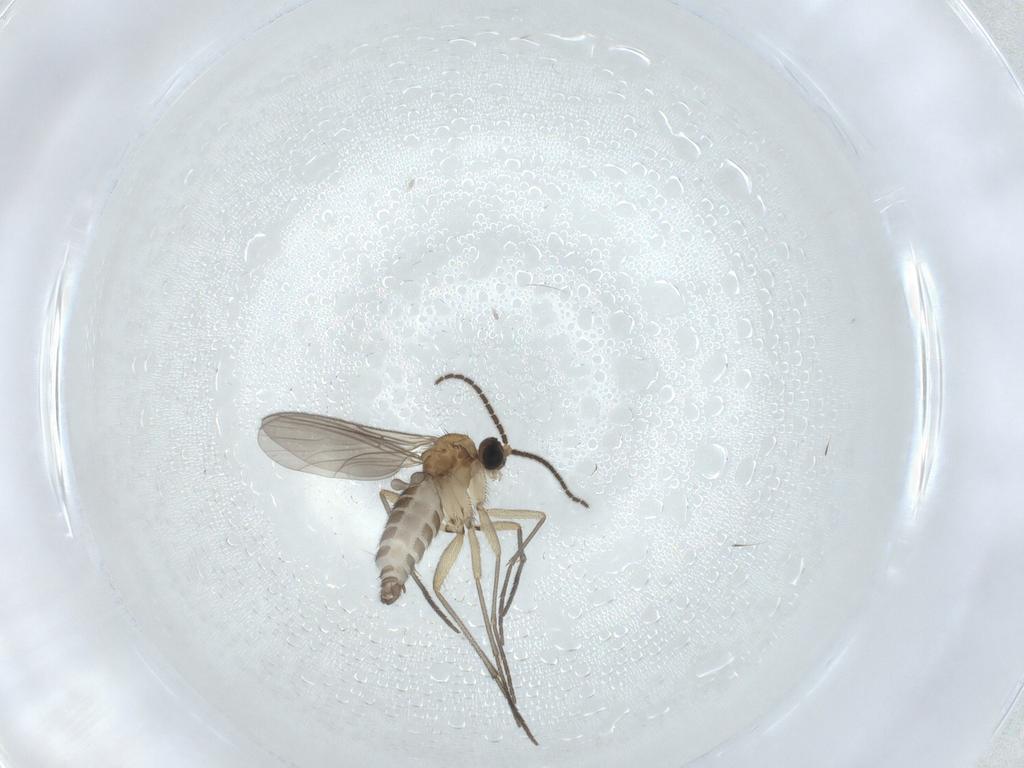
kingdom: Animalia
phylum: Arthropoda
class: Insecta
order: Diptera
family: Sciaridae
